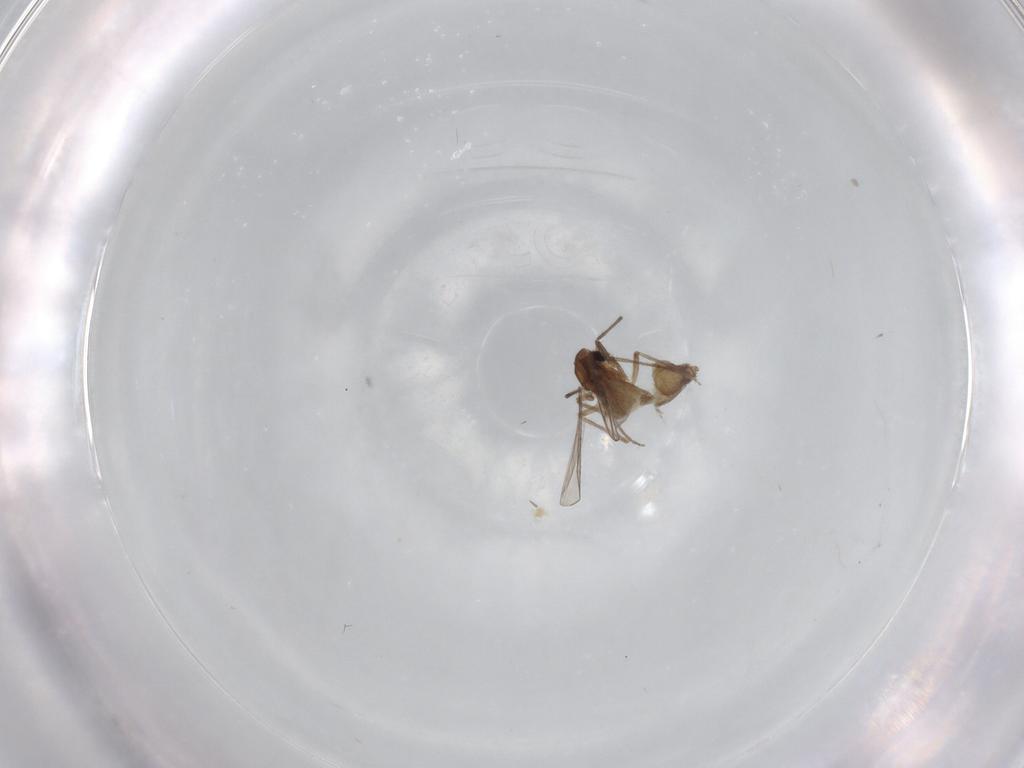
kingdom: Animalia
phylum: Arthropoda
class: Insecta
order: Diptera
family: Chironomidae
